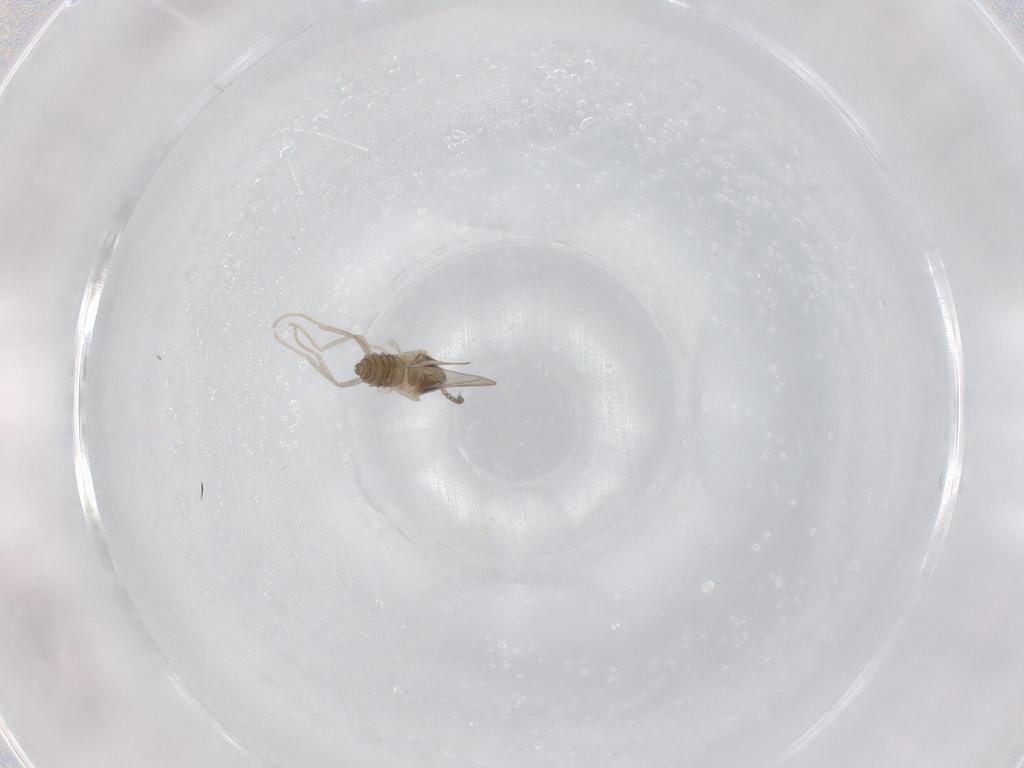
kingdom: Animalia
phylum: Arthropoda
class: Insecta
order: Diptera
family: Cecidomyiidae
